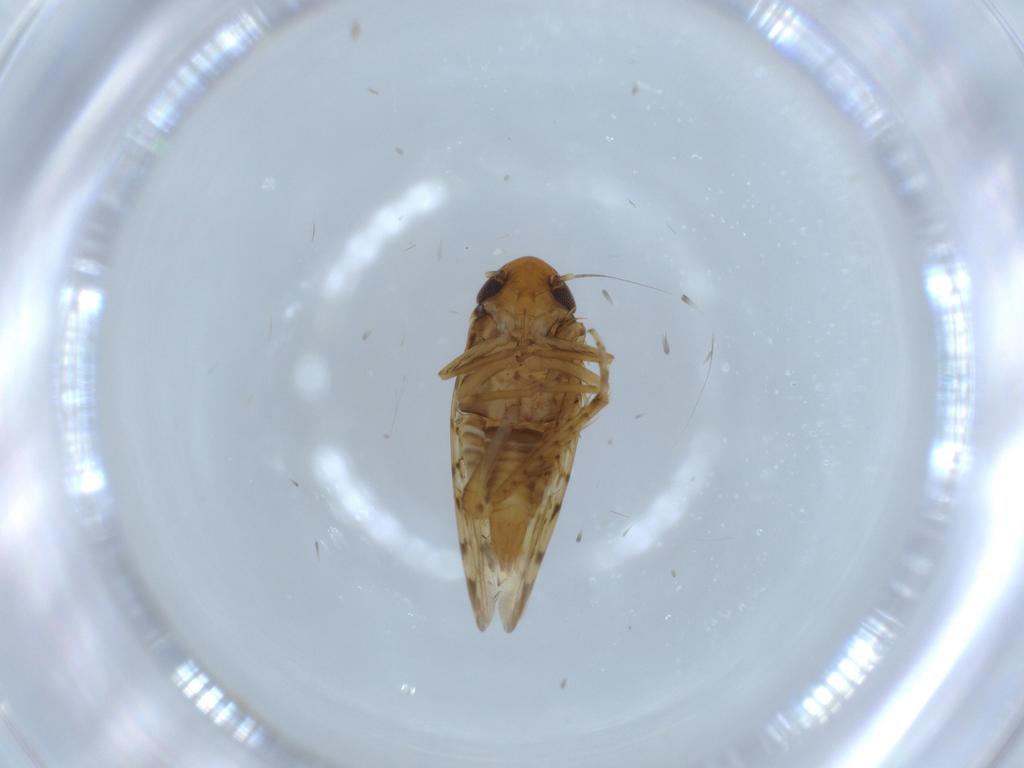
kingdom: Animalia
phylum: Arthropoda
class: Insecta
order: Hemiptera
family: Cicadellidae
